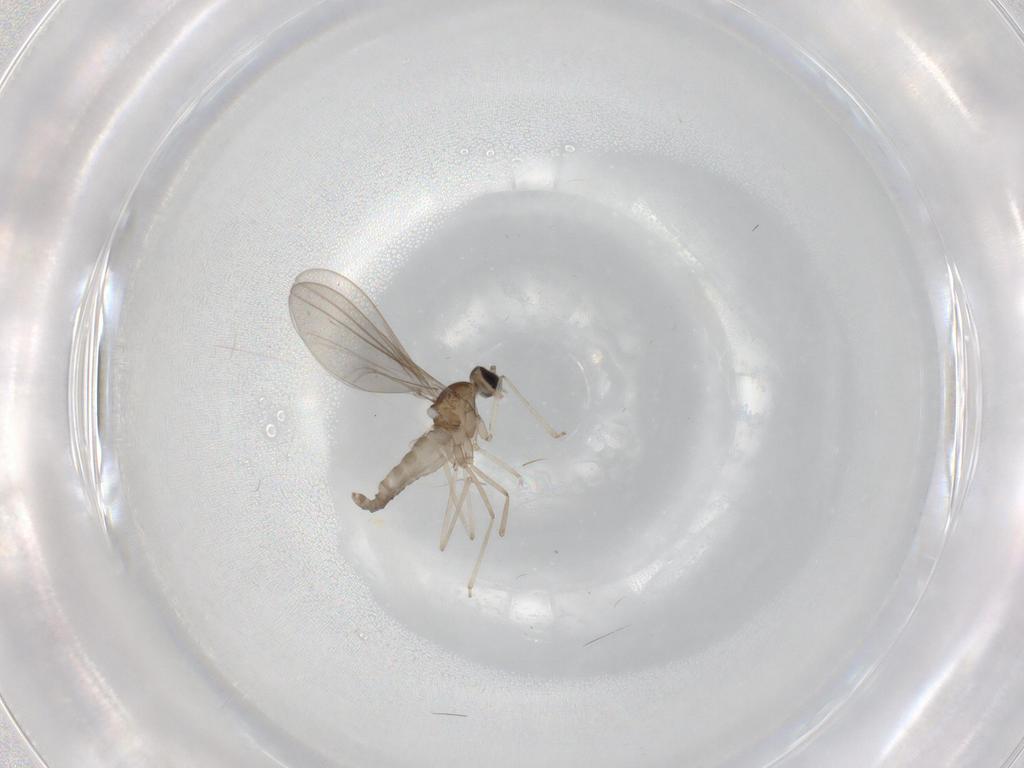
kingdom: Animalia
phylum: Arthropoda
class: Insecta
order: Diptera
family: Cecidomyiidae
